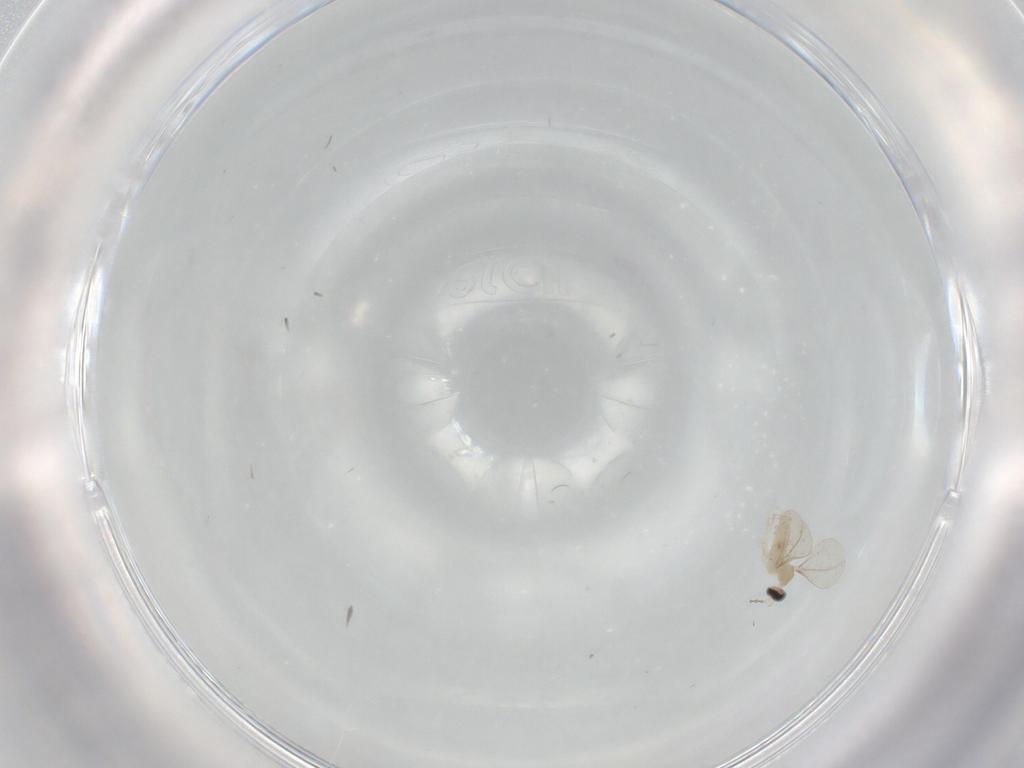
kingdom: Animalia
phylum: Arthropoda
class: Insecta
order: Diptera
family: Cecidomyiidae
